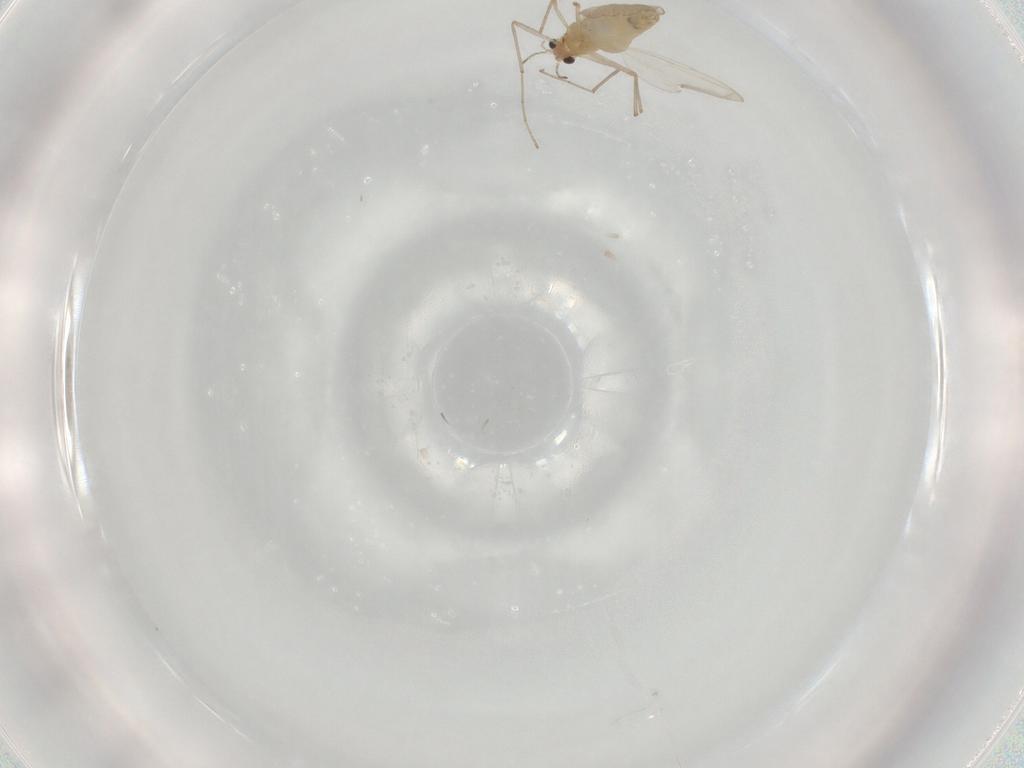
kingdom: Animalia
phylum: Arthropoda
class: Insecta
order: Diptera
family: Chironomidae
